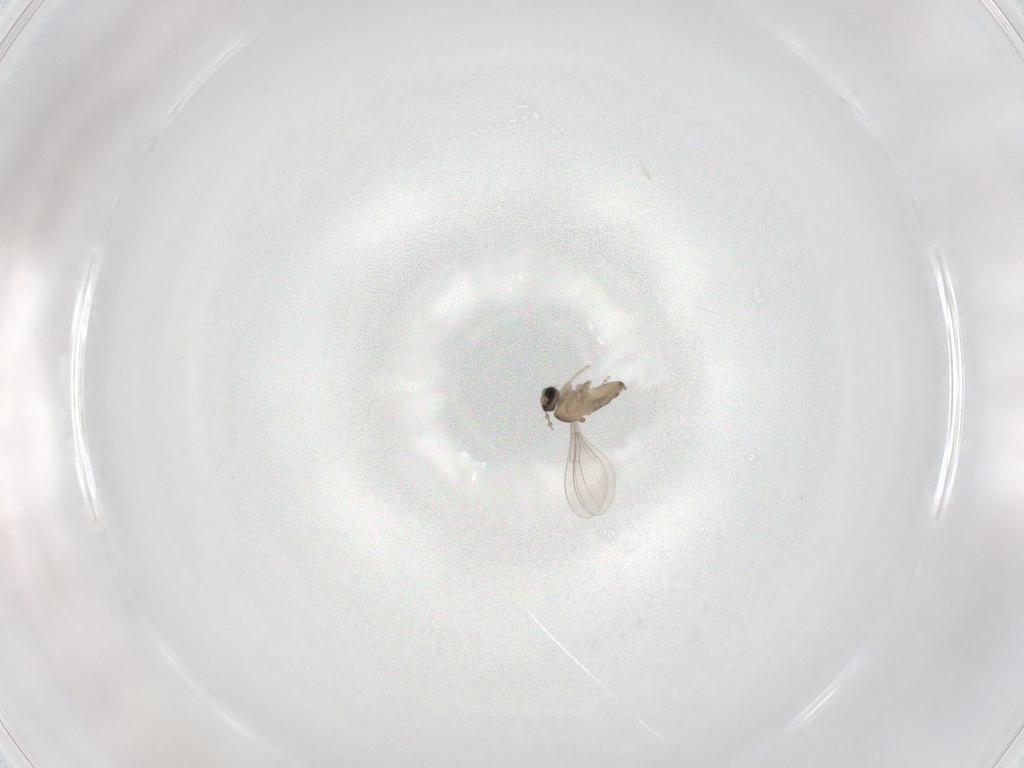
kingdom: Animalia
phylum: Arthropoda
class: Insecta
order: Diptera
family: Cecidomyiidae
